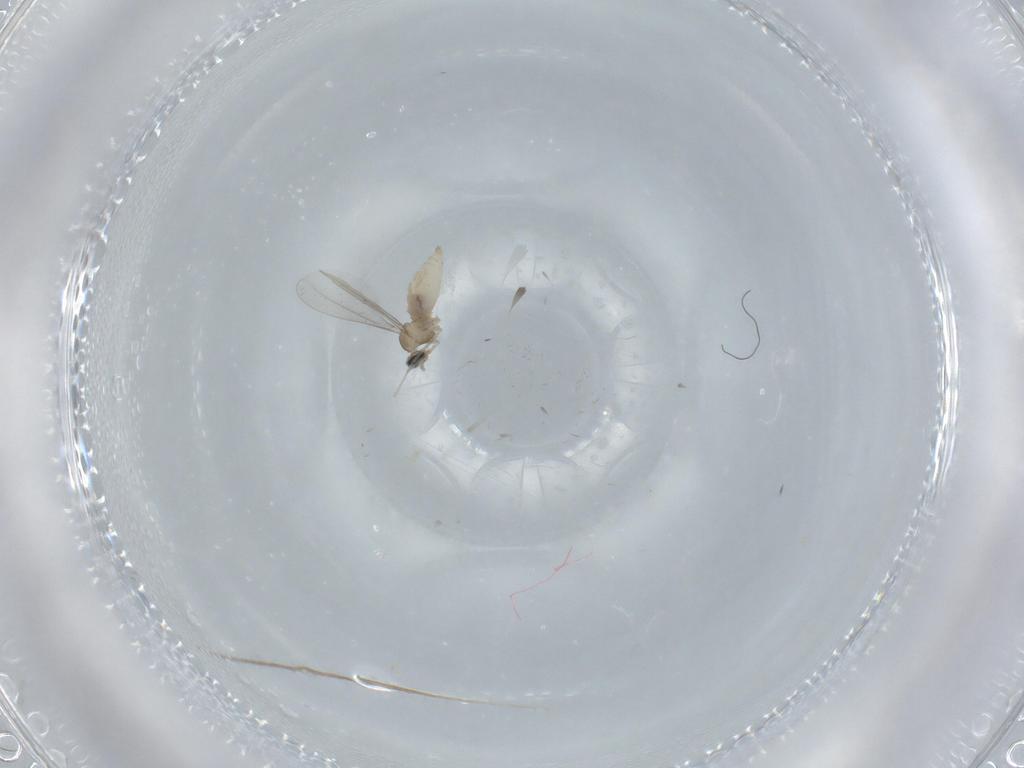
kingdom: Animalia
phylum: Arthropoda
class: Insecta
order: Diptera
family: Cecidomyiidae
